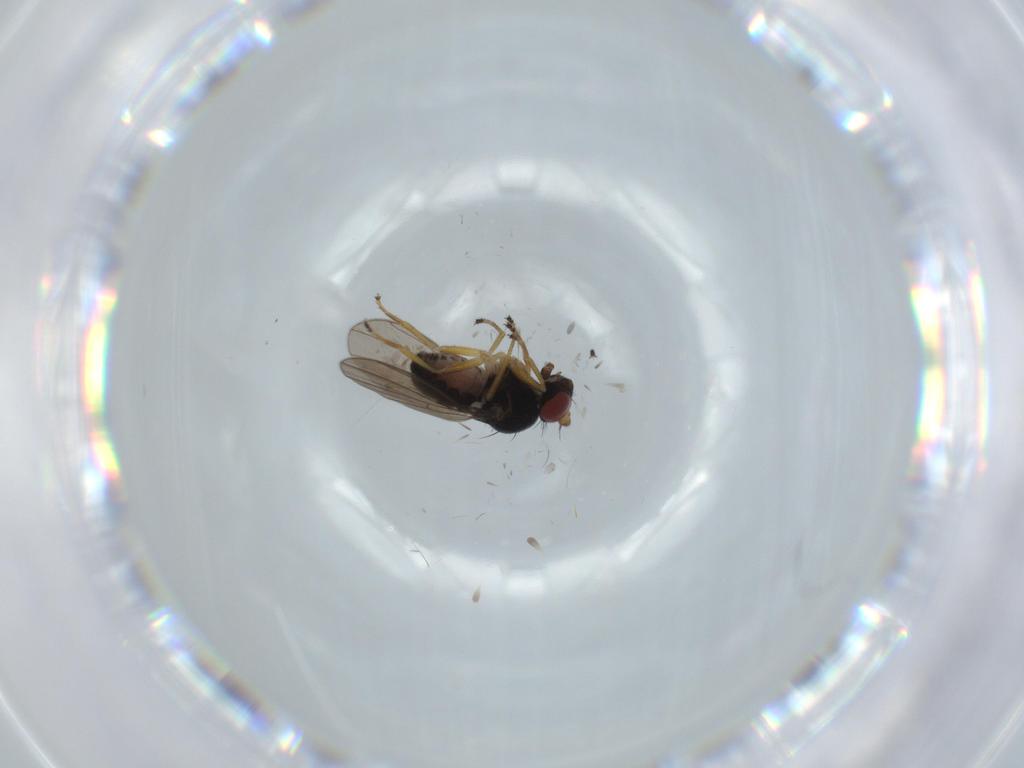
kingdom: Animalia
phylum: Arthropoda
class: Insecta
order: Diptera
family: Ephydridae
